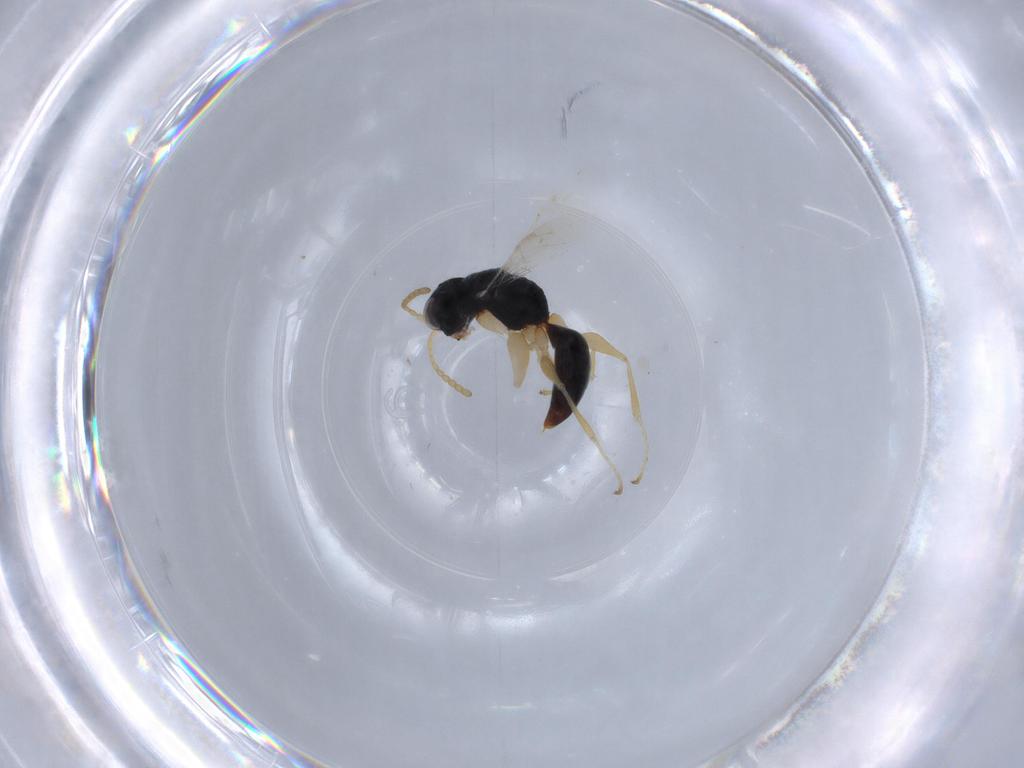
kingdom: Animalia
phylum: Arthropoda
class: Insecta
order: Hymenoptera
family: Dryinidae
